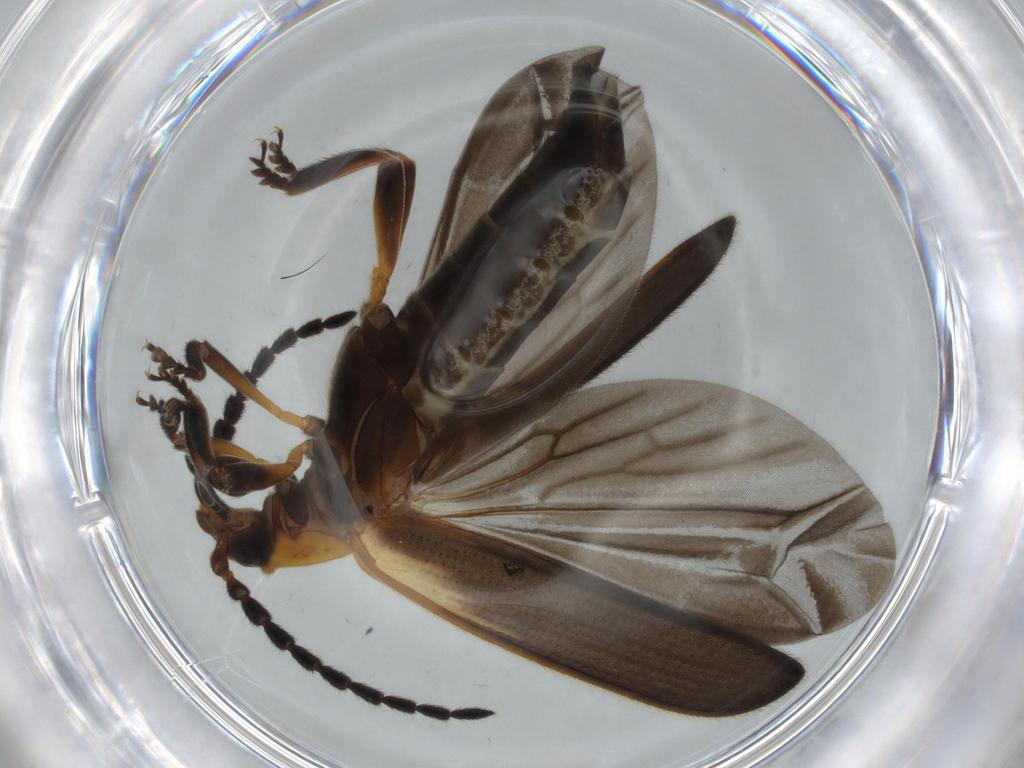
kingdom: Animalia
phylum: Arthropoda
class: Insecta
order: Coleoptera
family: Lycidae
